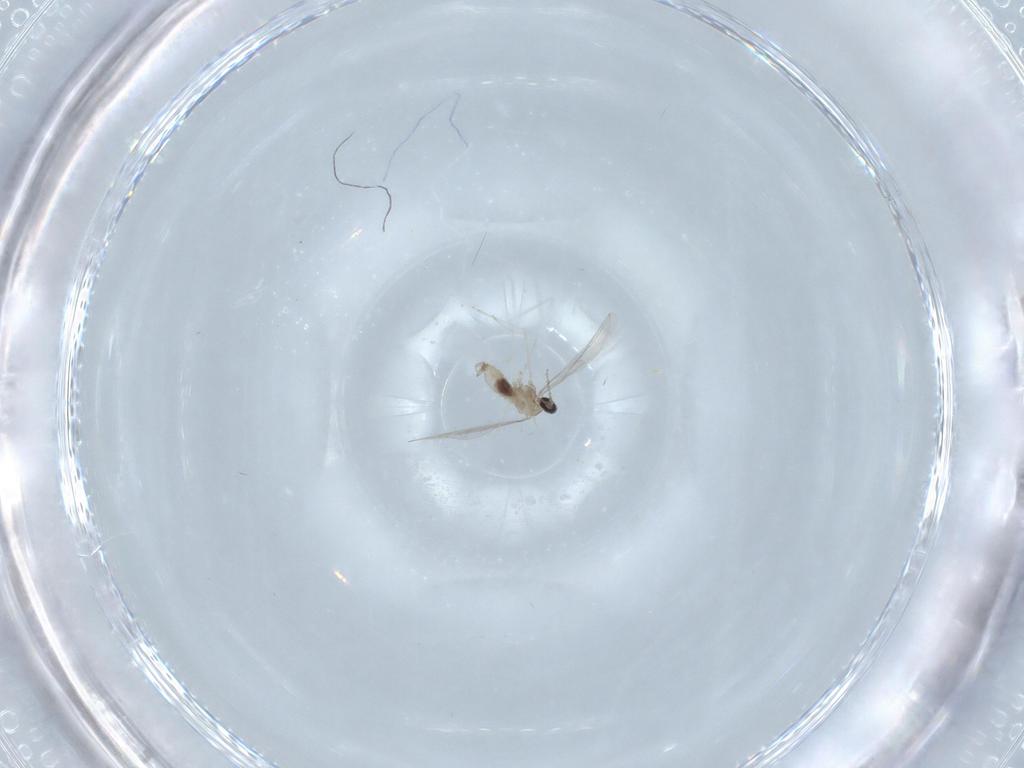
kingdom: Animalia
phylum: Arthropoda
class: Insecta
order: Diptera
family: Cecidomyiidae
